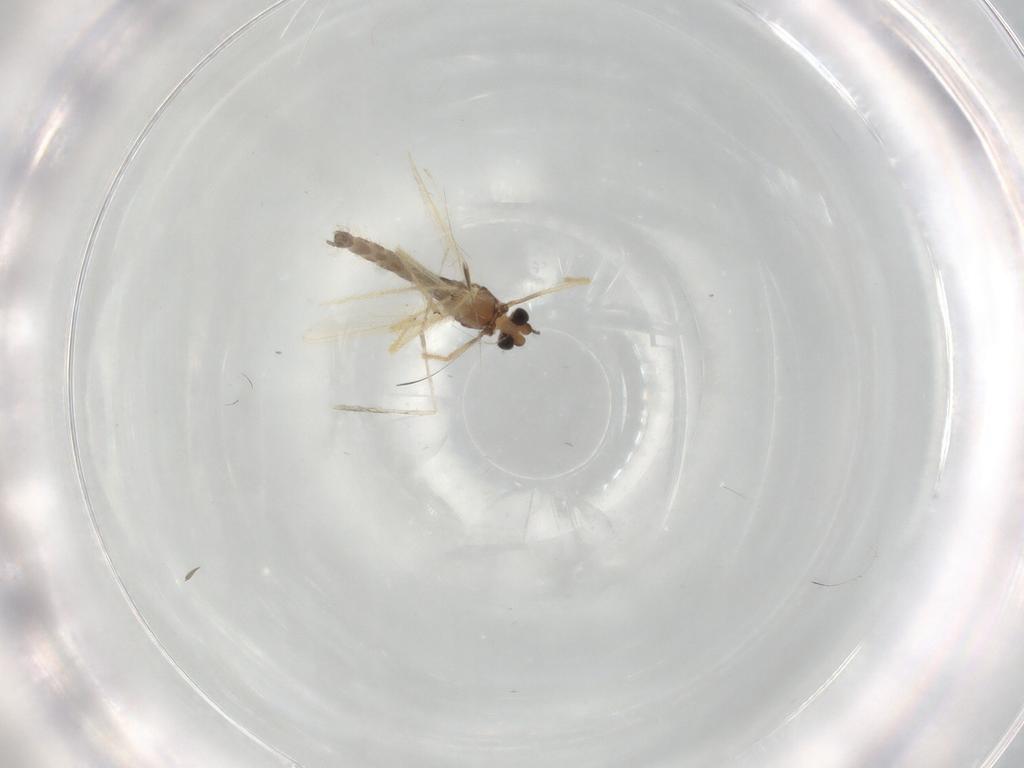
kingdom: Animalia
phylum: Arthropoda
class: Insecta
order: Diptera
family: Chironomidae
